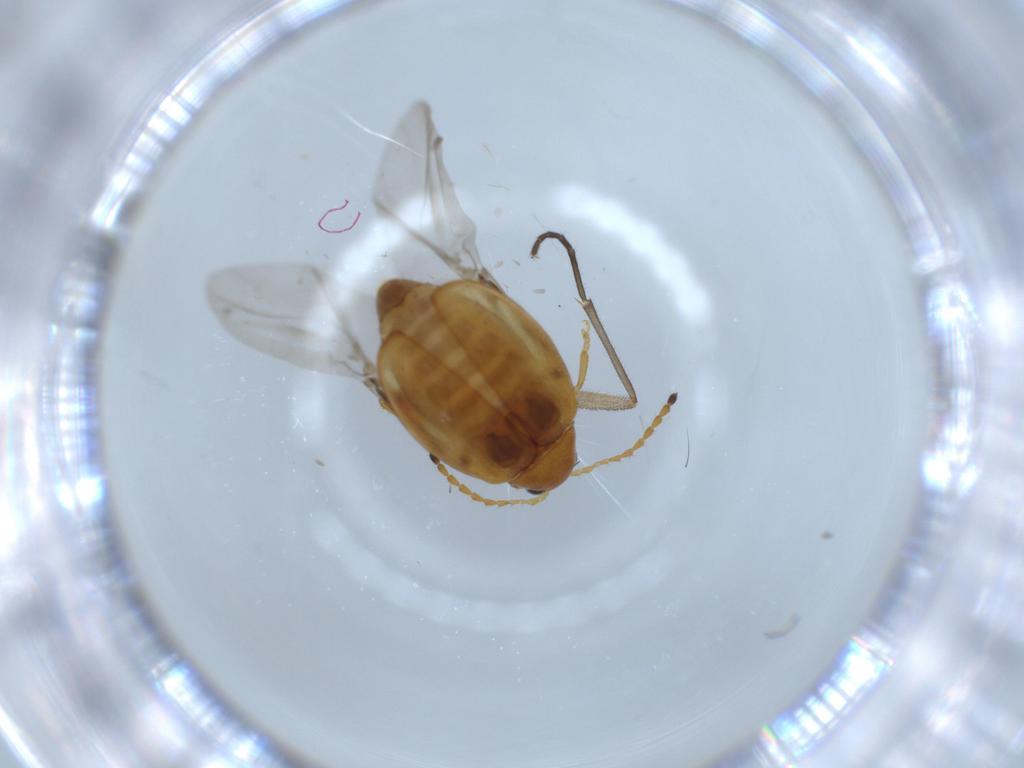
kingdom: Animalia
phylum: Arthropoda
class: Insecta
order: Coleoptera
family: Chrysomelidae
